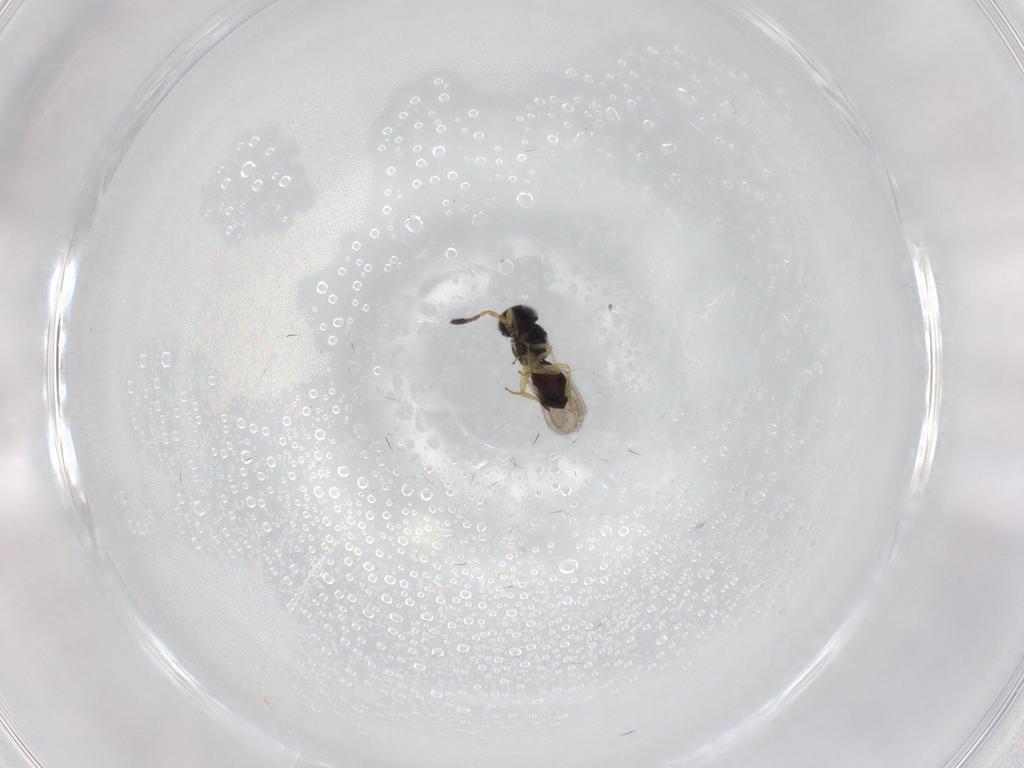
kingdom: Animalia
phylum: Arthropoda
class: Insecta
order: Hymenoptera
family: Scelionidae
